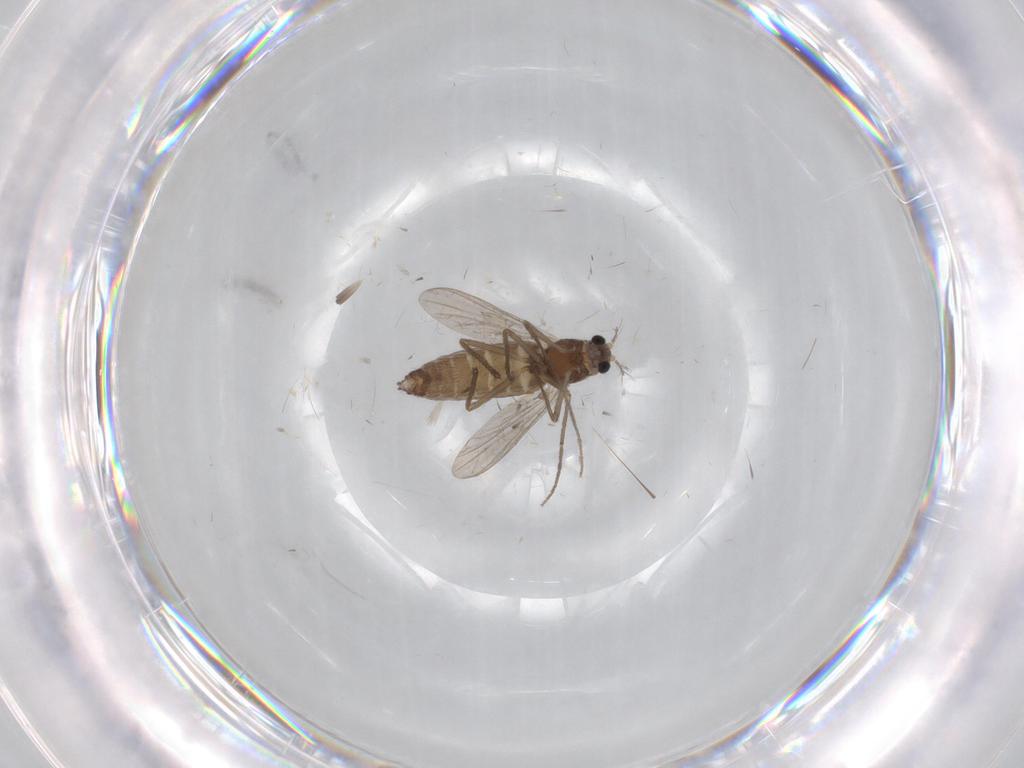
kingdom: Animalia
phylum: Arthropoda
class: Insecta
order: Diptera
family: Chironomidae
